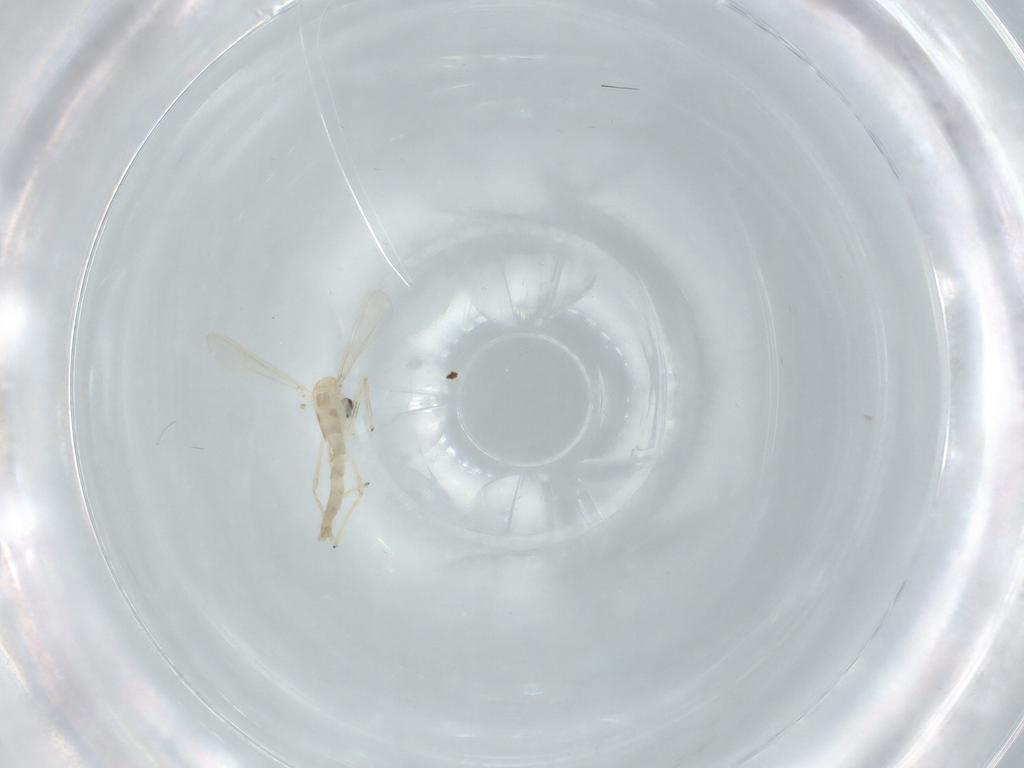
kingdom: Animalia
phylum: Arthropoda
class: Insecta
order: Diptera
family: Chironomidae
